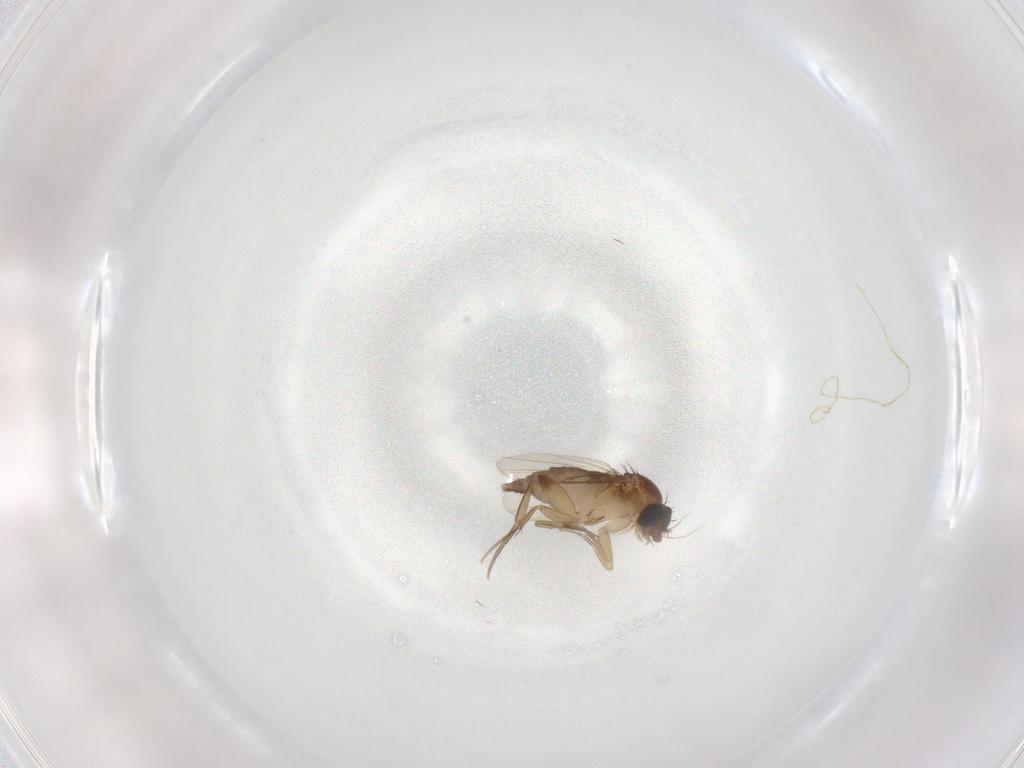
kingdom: Animalia
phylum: Arthropoda
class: Insecta
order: Diptera
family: Phoridae
